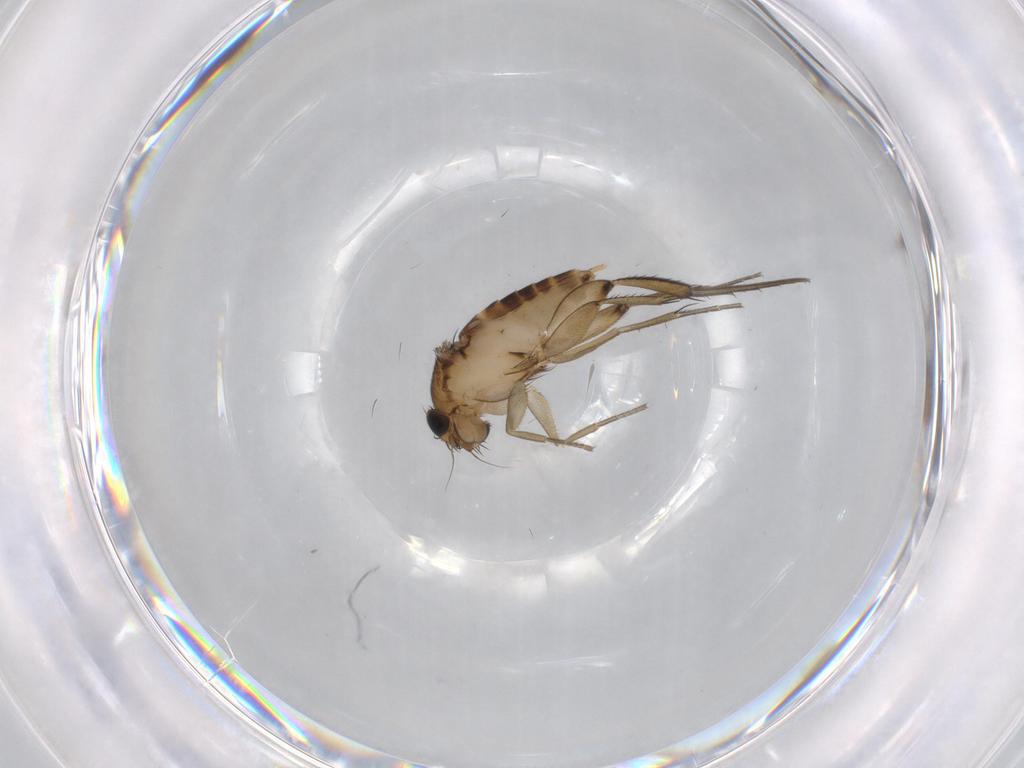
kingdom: Animalia
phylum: Arthropoda
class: Insecta
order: Diptera
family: Phoridae
